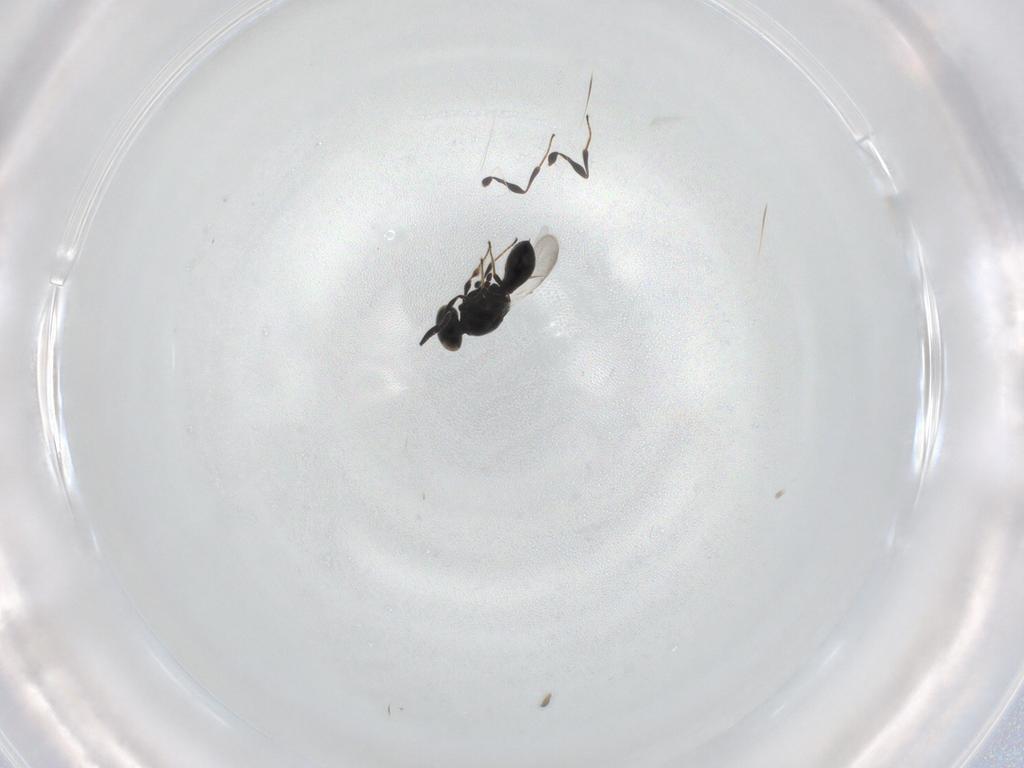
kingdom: Animalia
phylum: Arthropoda
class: Insecta
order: Hymenoptera
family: Platygastridae
